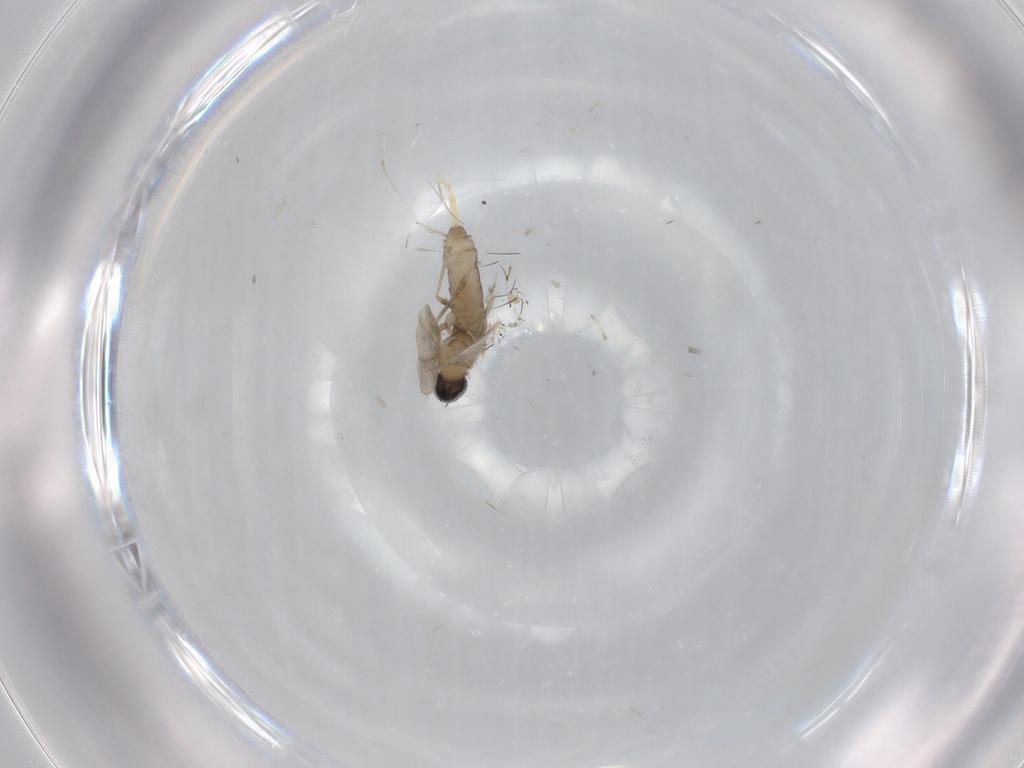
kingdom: Animalia
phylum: Arthropoda
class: Insecta
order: Diptera
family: Cecidomyiidae
